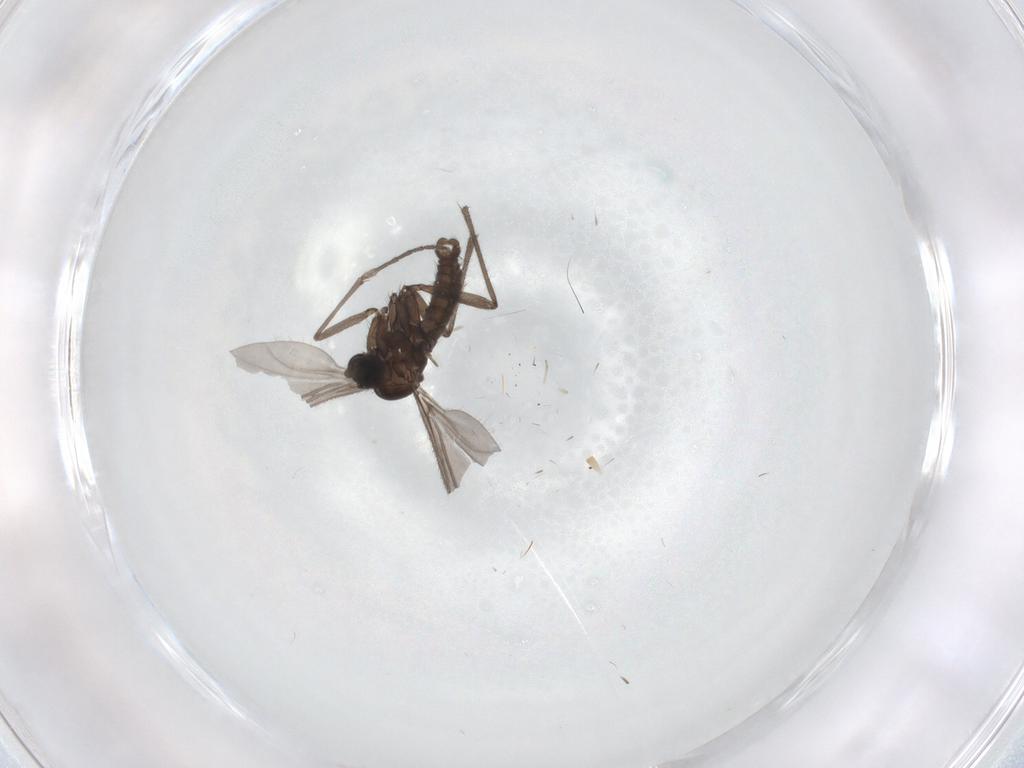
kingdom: Animalia
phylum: Arthropoda
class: Insecta
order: Diptera
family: Sciaridae
